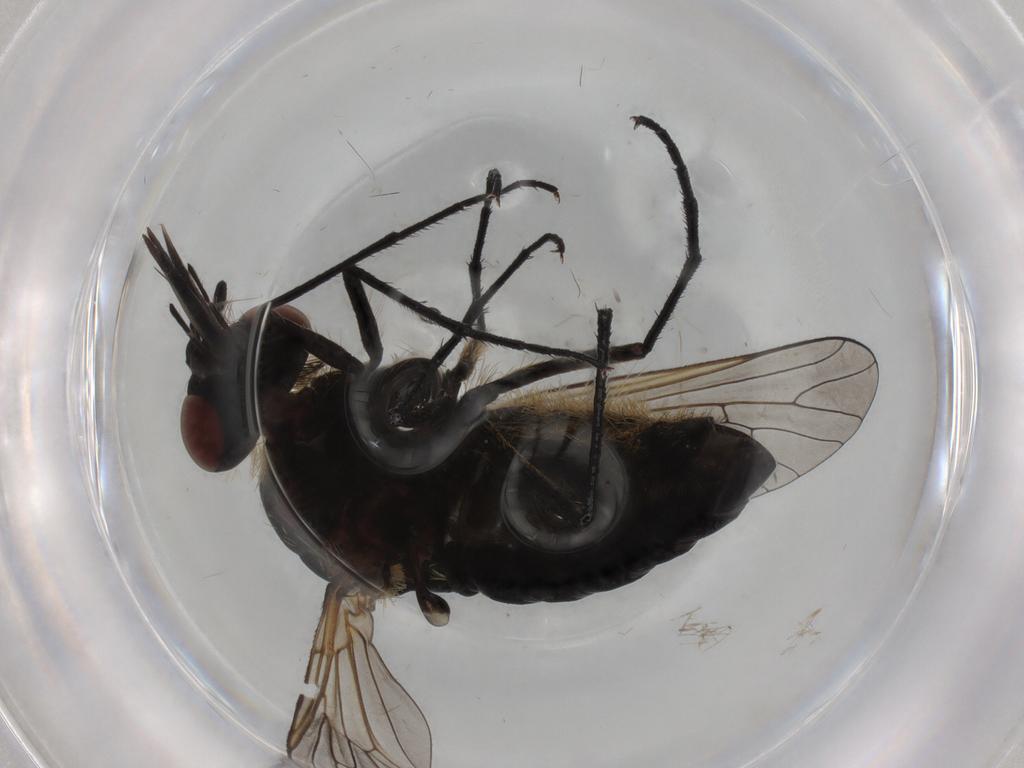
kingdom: Animalia
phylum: Arthropoda
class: Insecta
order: Diptera
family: Bombyliidae
